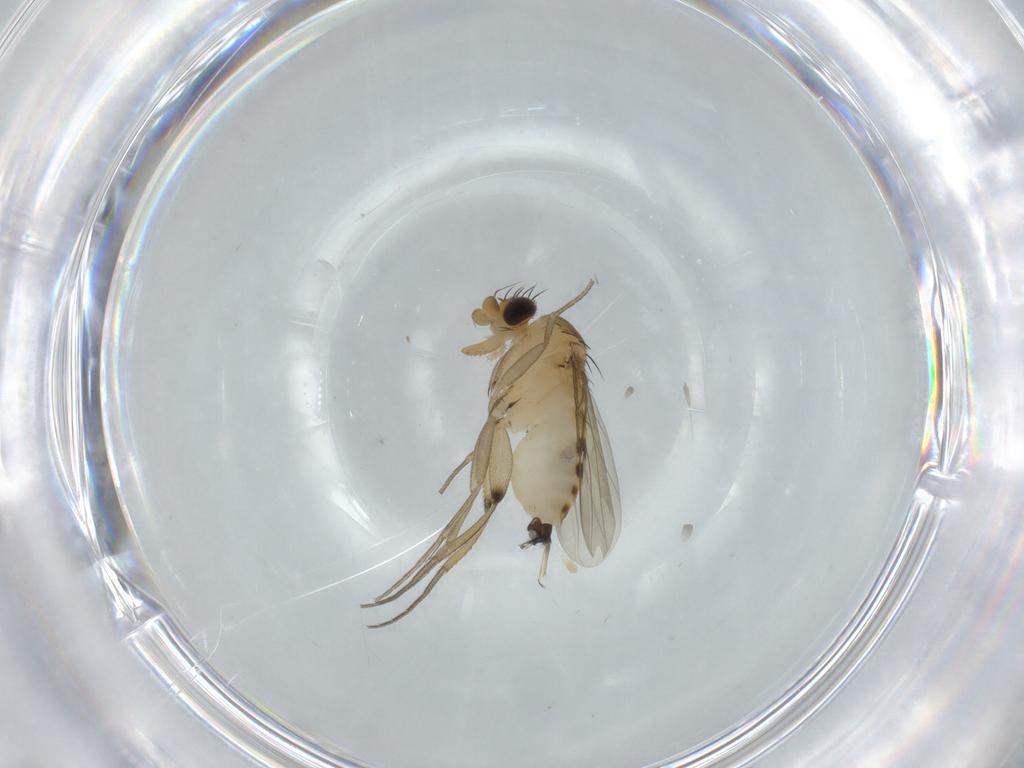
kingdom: Animalia
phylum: Arthropoda
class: Insecta
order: Diptera
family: Phoridae
